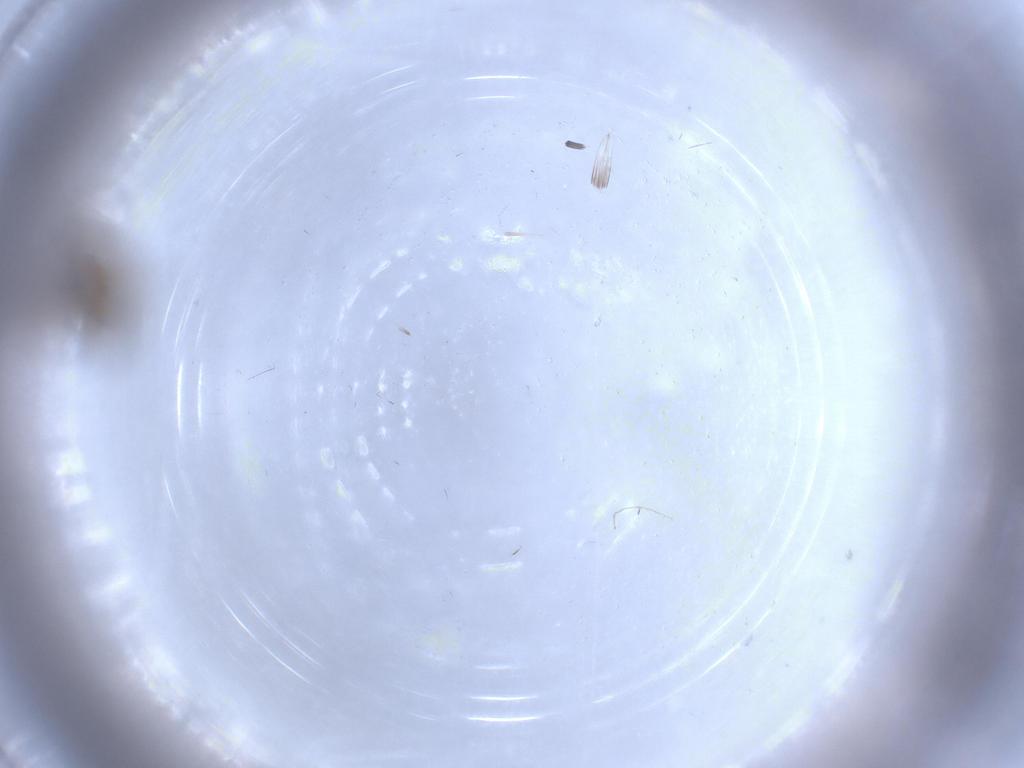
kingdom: Animalia
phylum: Arthropoda
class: Insecta
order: Diptera
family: Cecidomyiidae
